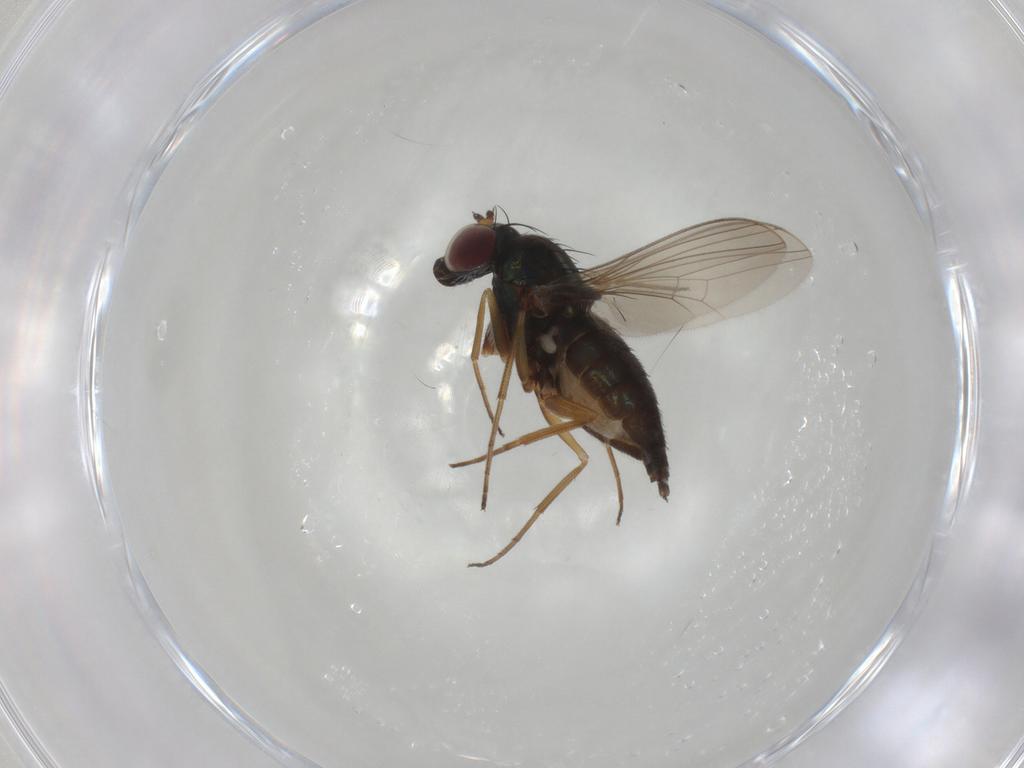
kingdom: Animalia
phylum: Arthropoda
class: Insecta
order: Diptera
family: Dolichopodidae
